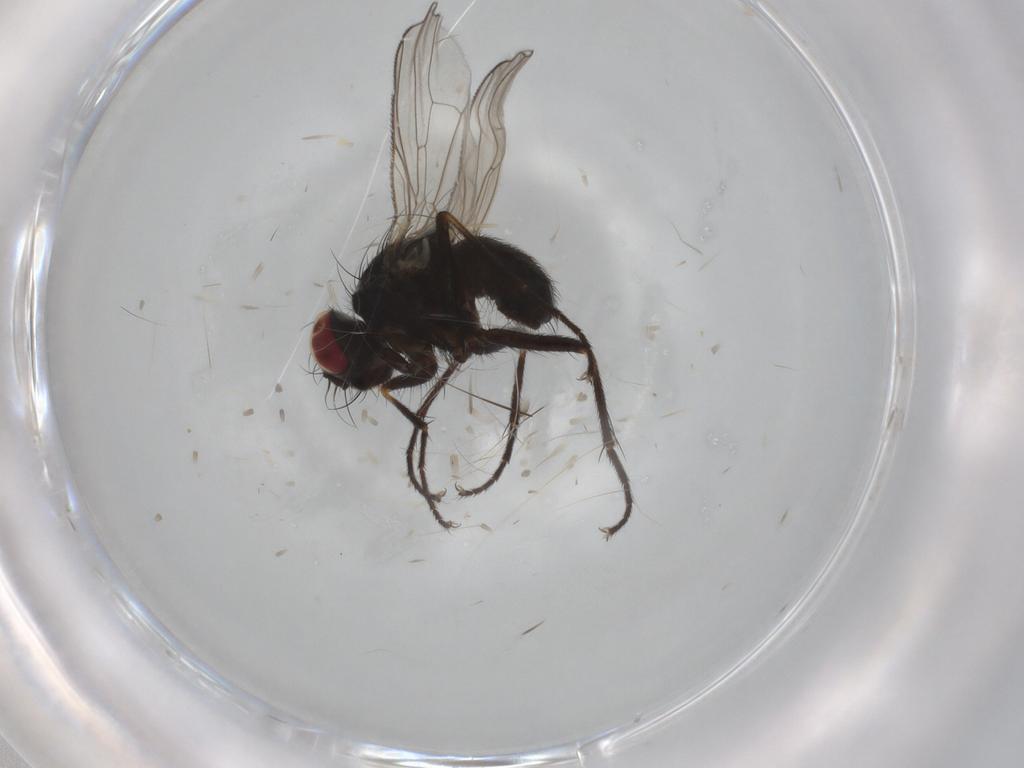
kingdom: Animalia
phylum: Arthropoda
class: Insecta
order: Diptera
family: Muscidae
